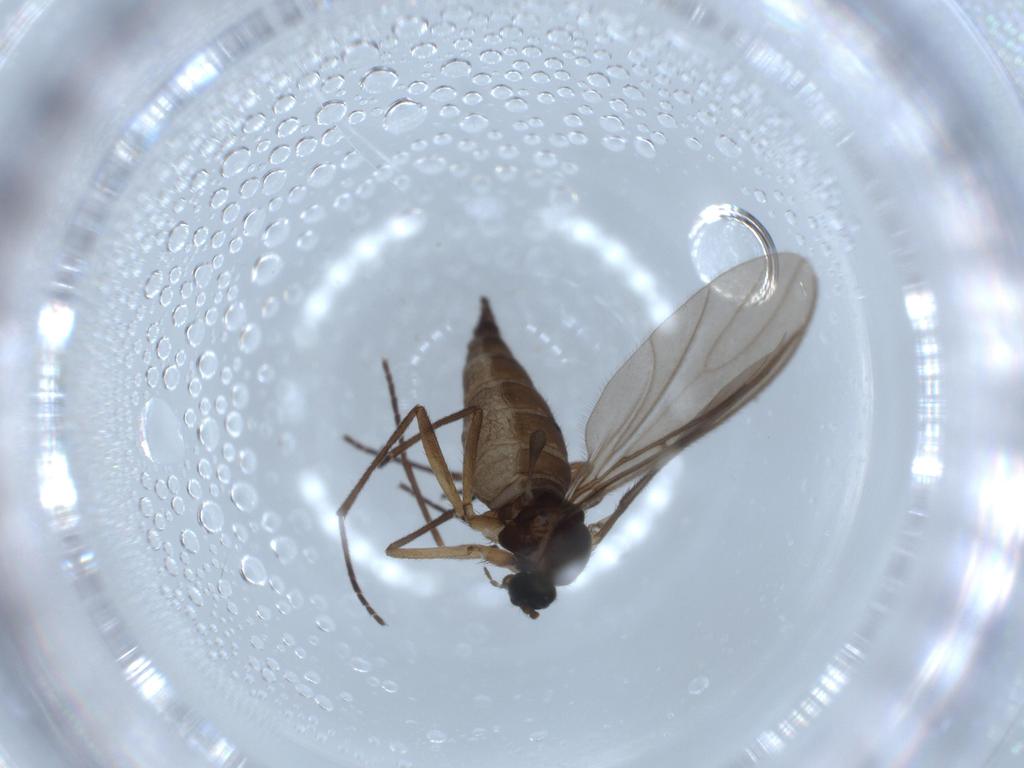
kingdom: Animalia
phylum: Arthropoda
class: Insecta
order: Diptera
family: Sciaridae
